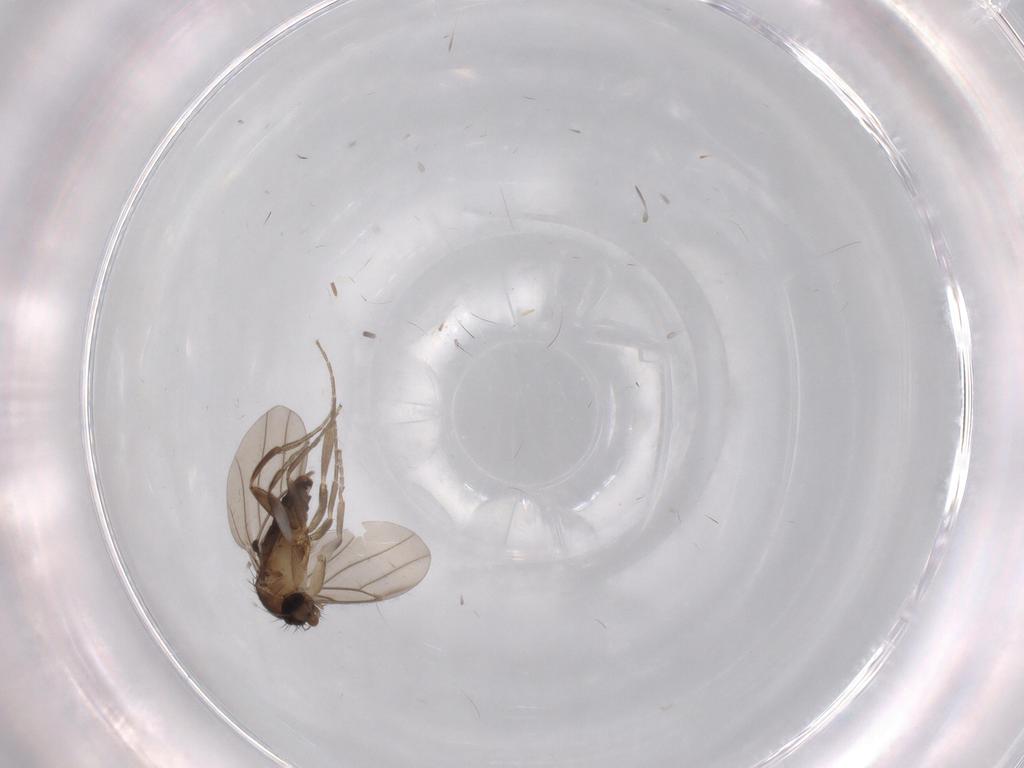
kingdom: Animalia
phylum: Arthropoda
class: Insecta
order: Diptera
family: Limoniidae
